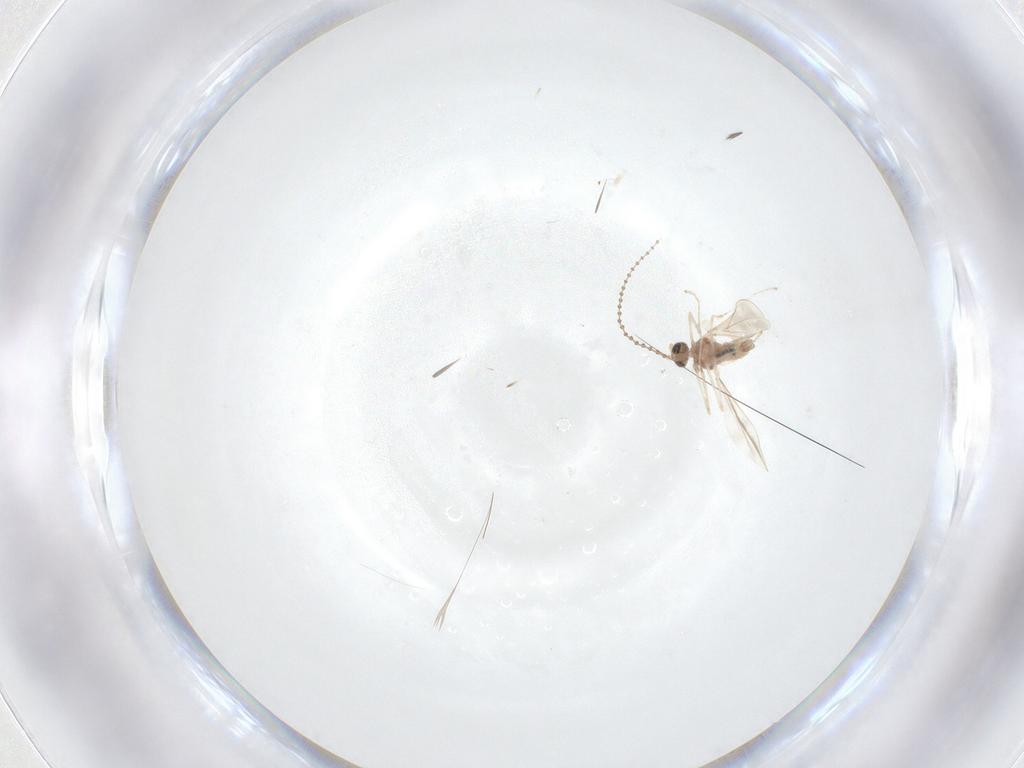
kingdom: Animalia
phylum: Arthropoda
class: Insecta
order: Diptera
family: Cecidomyiidae
